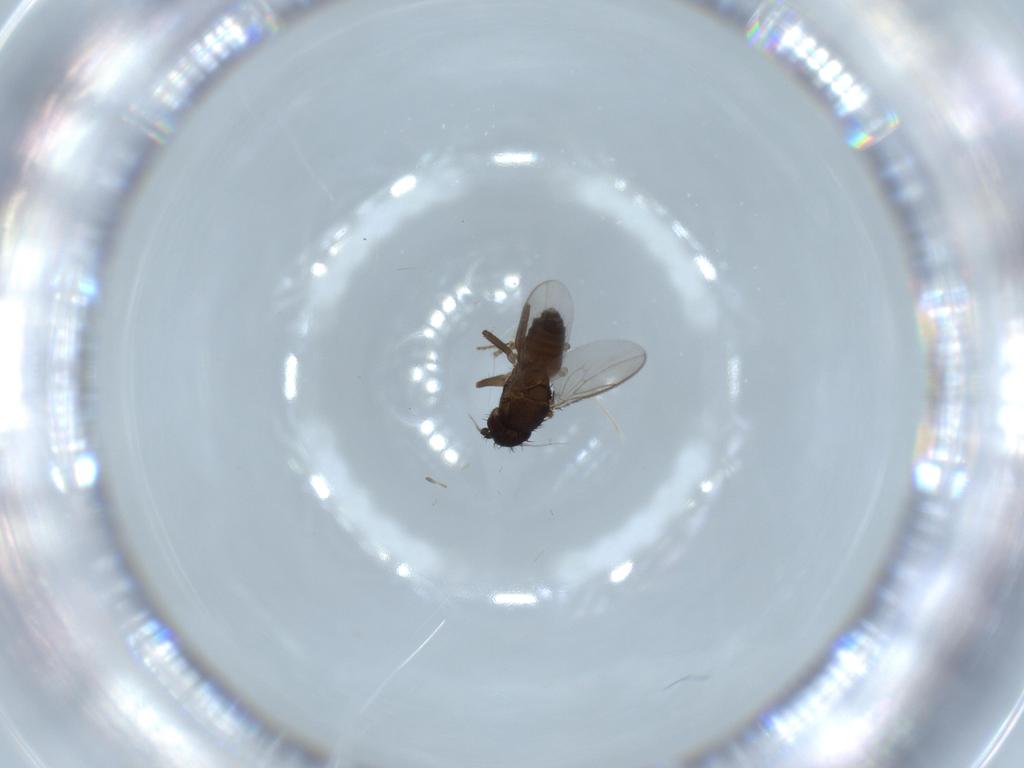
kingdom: Animalia
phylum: Arthropoda
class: Insecta
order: Diptera
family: Sphaeroceridae
